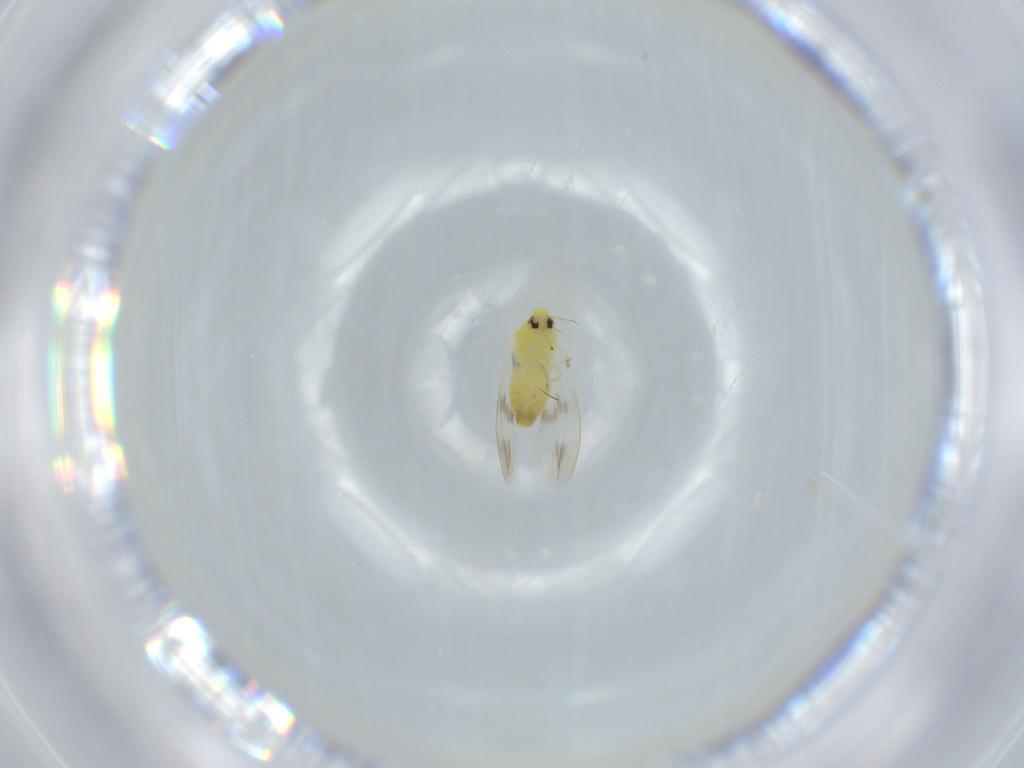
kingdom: Animalia
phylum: Arthropoda
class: Insecta
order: Hemiptera
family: Aleyrodidae
